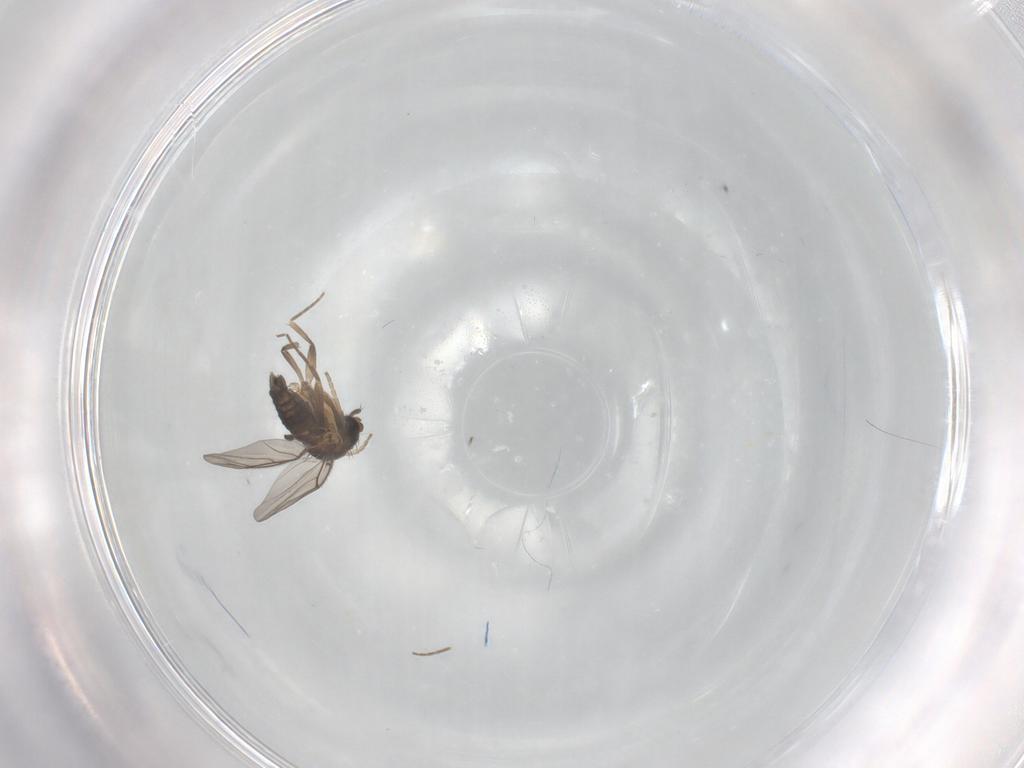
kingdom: Animalia
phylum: Arthropoda
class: Insecta
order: Diptera
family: Phoridae
